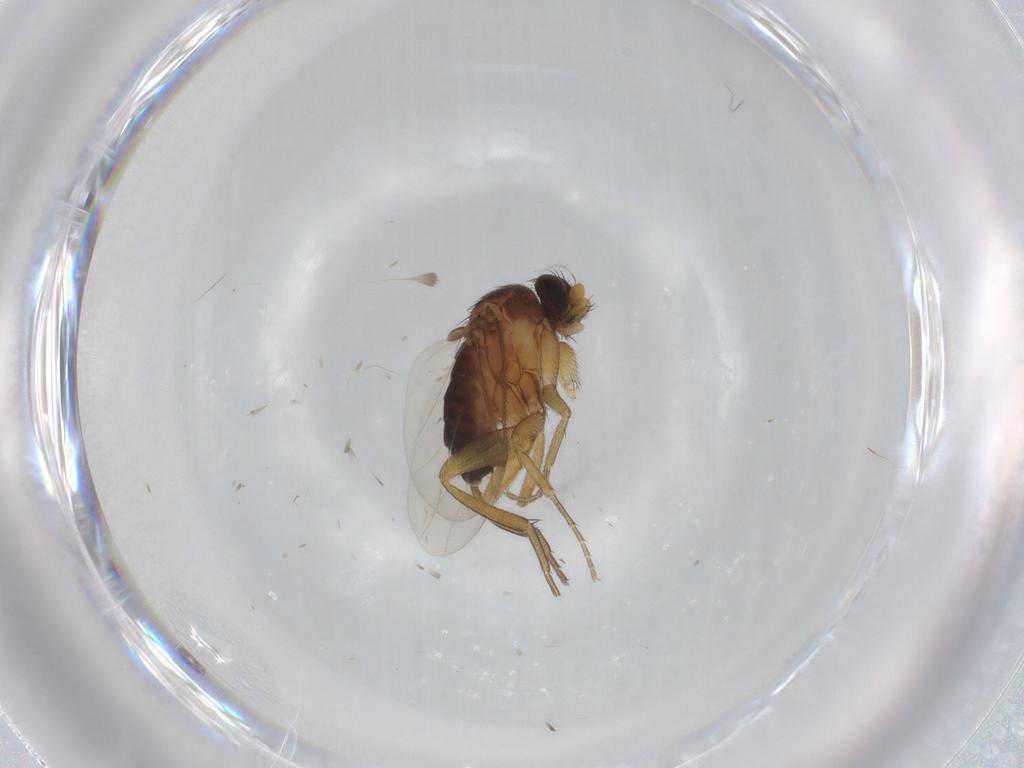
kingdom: Animalia
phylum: Arthropoda
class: Insecta
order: Diptera
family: Phoridae
